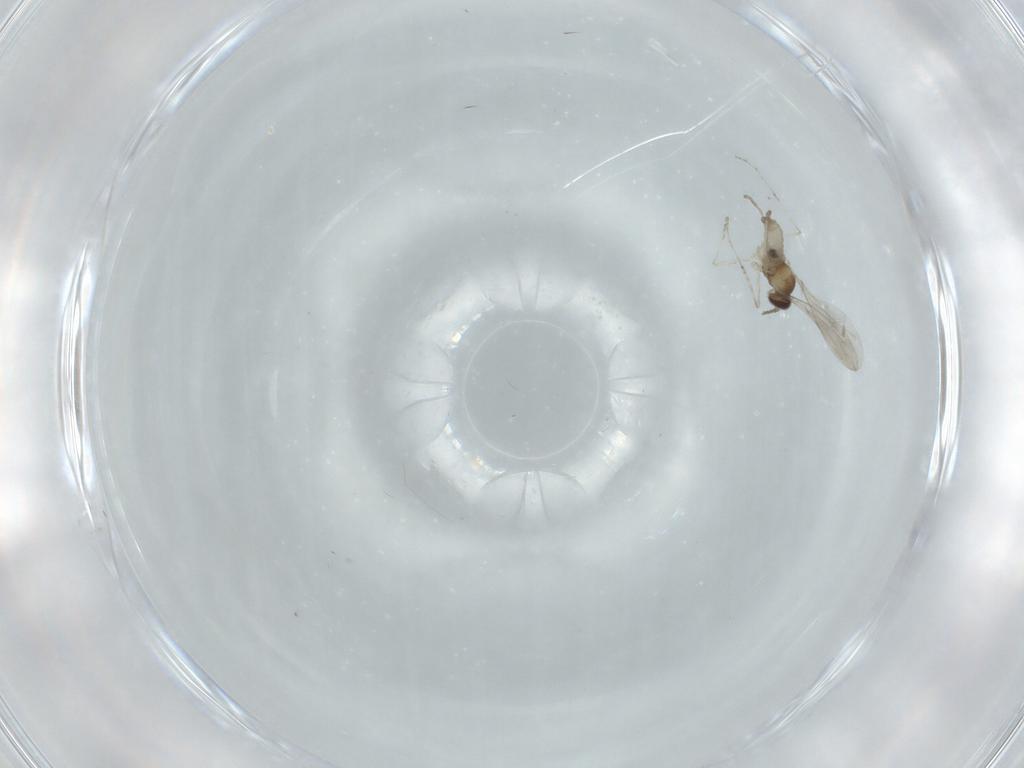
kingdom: Animalia
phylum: Arthropoda
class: Insecta
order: Diptera
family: Cecidomyiidae
